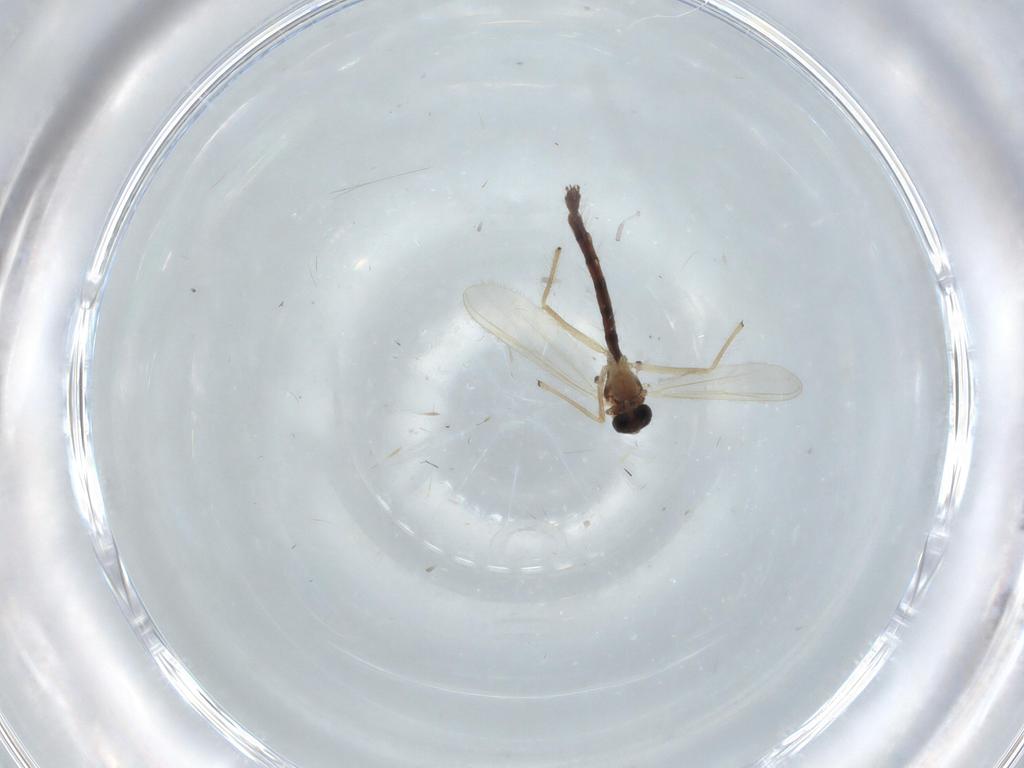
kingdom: Animalia
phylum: Arthropoda
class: Insecta
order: Diptera
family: Chironomidae
